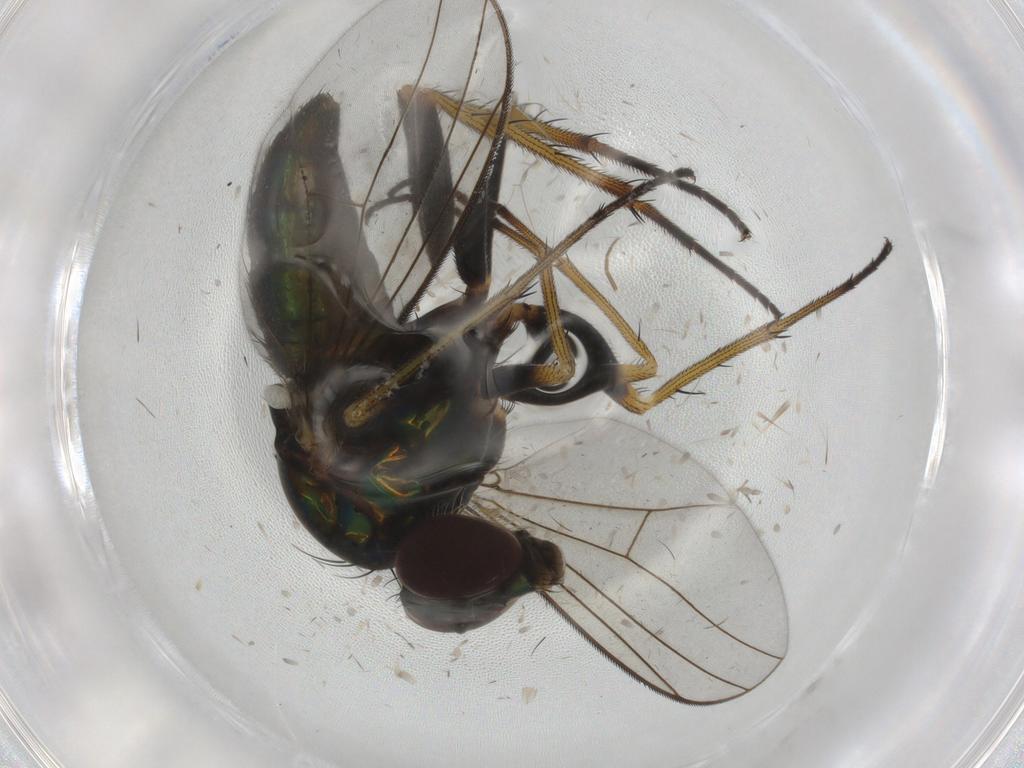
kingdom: Animalia
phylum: Arthropoda
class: Insecta
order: Diptera
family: Dolichopodidae
